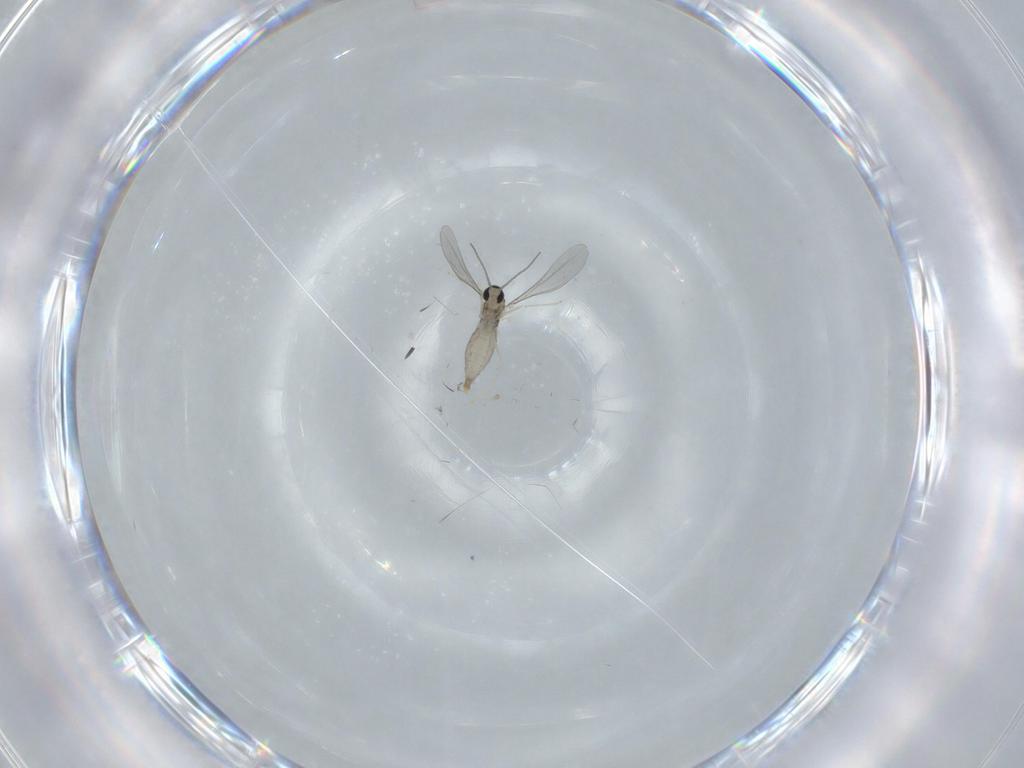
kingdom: Animalia
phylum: Arthropoda
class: Insecta
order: Diptera
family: Cecidomyiidae
